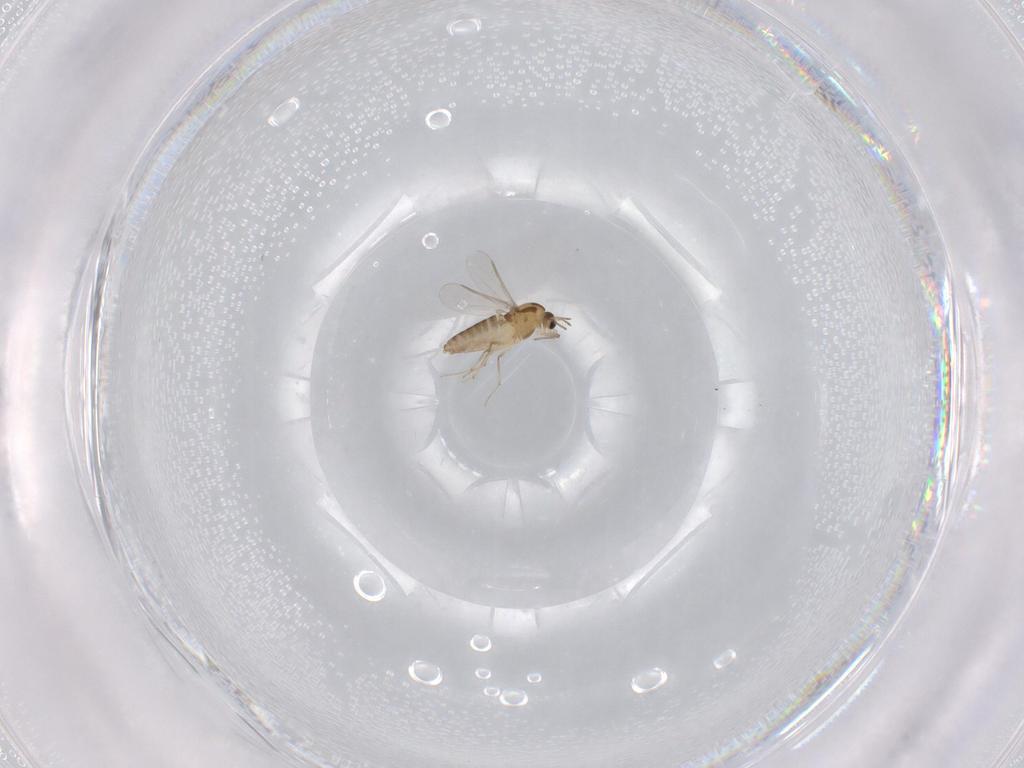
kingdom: Animalia
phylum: Arthropoda
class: Insecta
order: Diptera
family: Chironomidae
